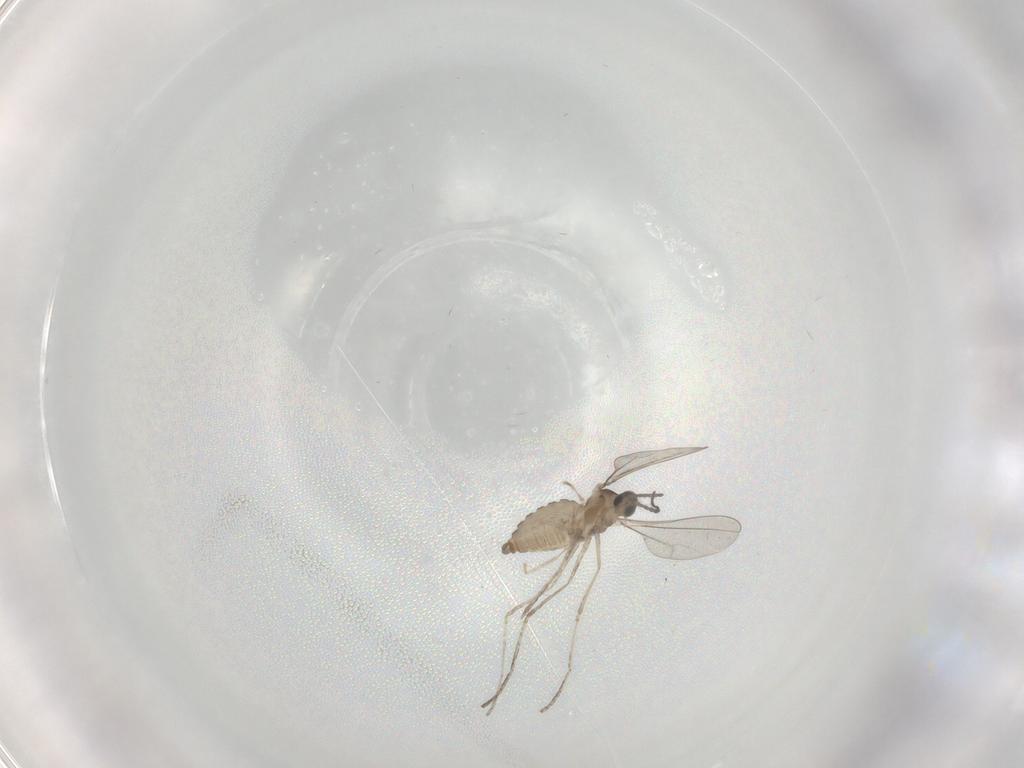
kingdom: Animalia
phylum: Arthropoda
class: Insecta
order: Diptera
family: Cecidomyiidae
